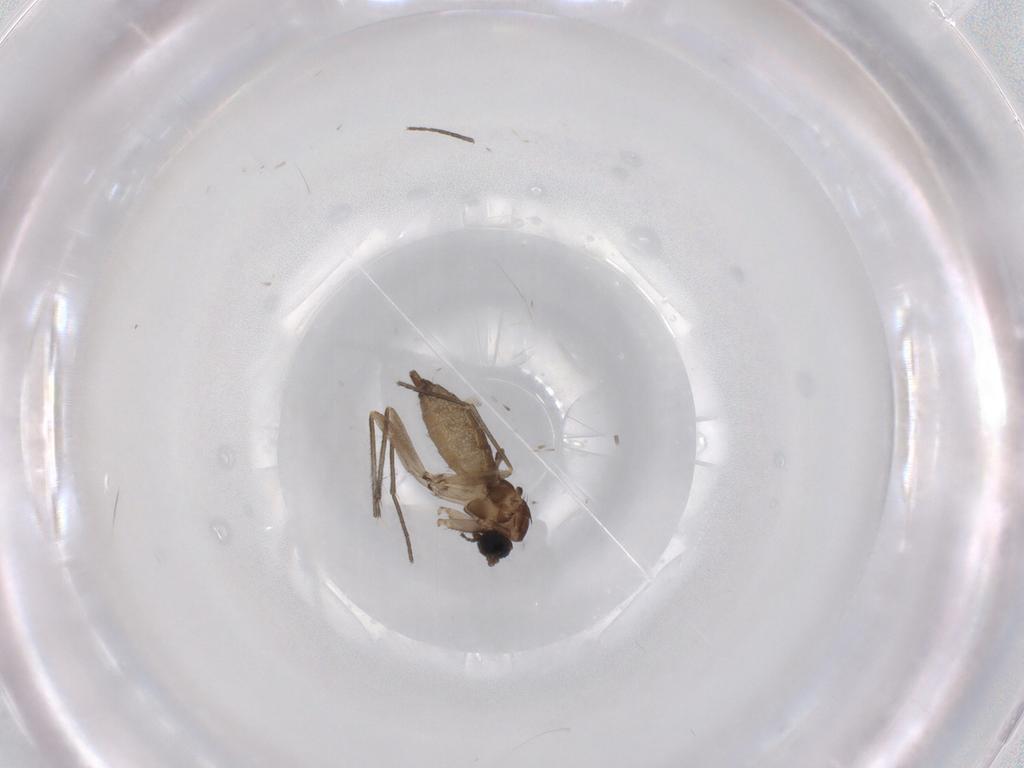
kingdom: Animalia
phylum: Arthropoda
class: Insecta
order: Diptera
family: Sciaridae
